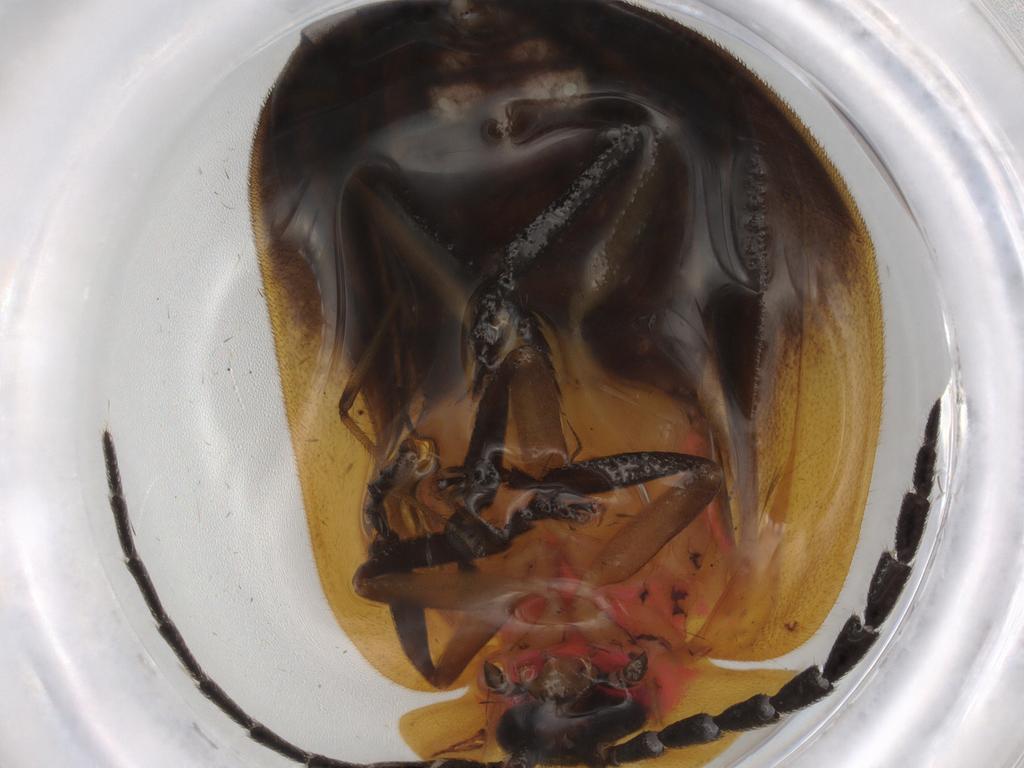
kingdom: Animalia
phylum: Arthropoda
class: Insecta
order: Coleoptera
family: Lampyridae
